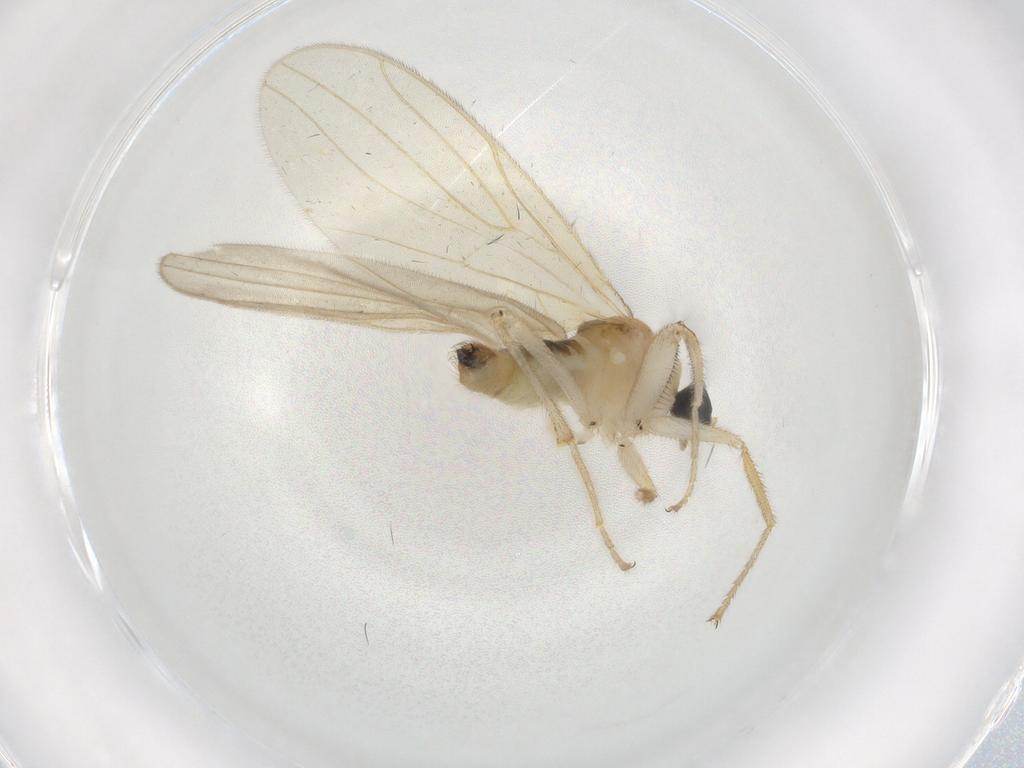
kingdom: Animalia
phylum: Arthropoda
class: Insecta
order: Diptera
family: Hybotidae
